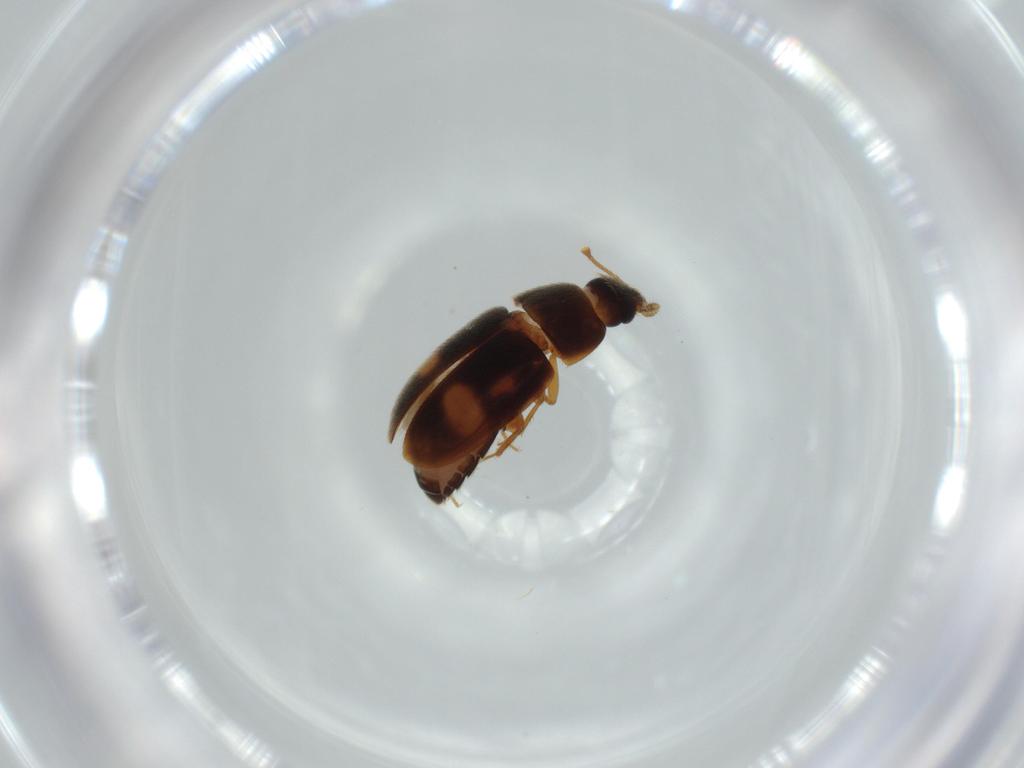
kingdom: Animalia
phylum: Arthropoda
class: Insecta
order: Coleoptera
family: Mycetophagidae
